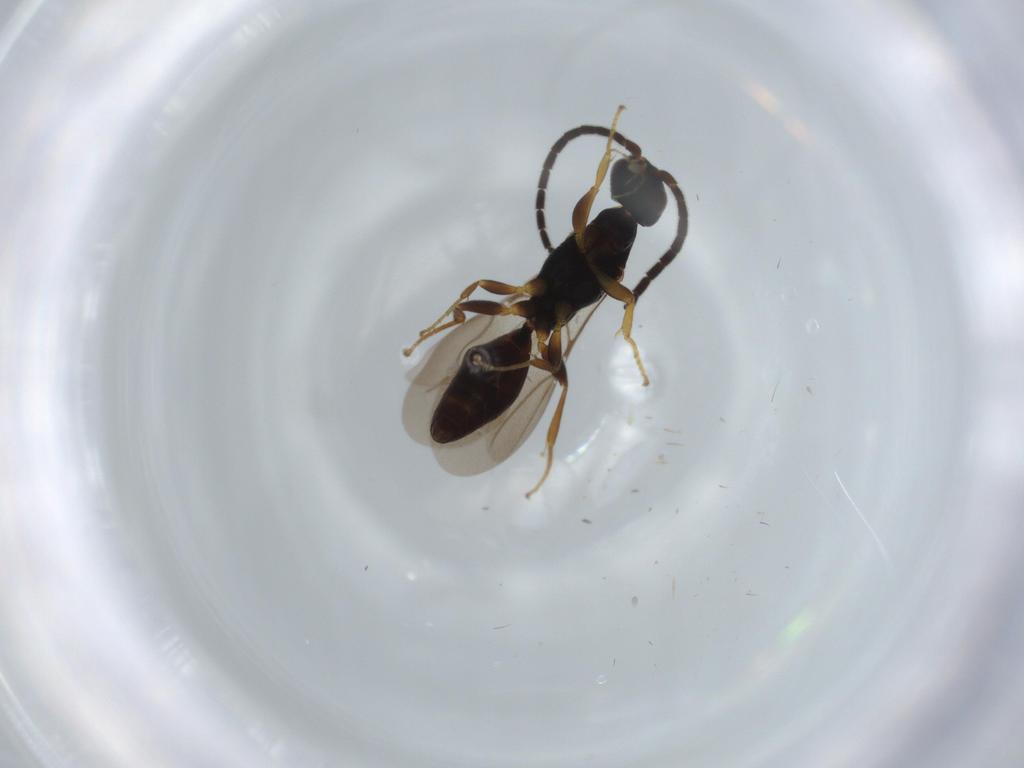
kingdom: Animalia
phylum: Arthropoda
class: Insecta
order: Hymenoptera
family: Bethylidae
